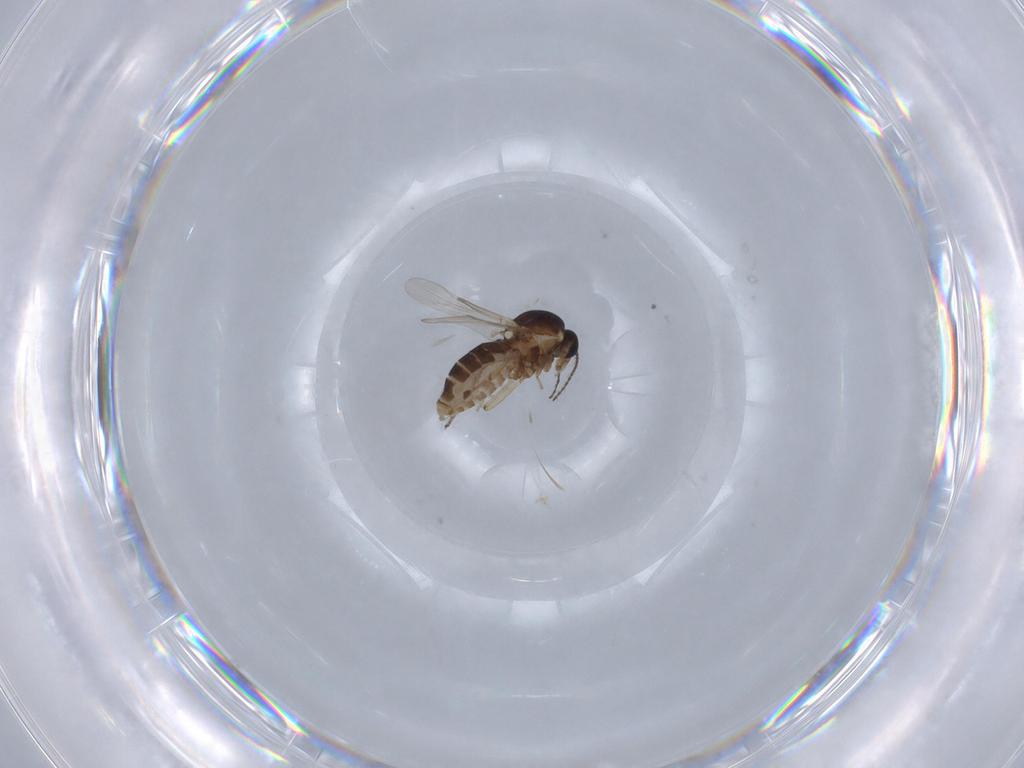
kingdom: Animalia
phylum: Arthropoda
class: Insecta
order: Diptera
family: Ceratopogonidae
